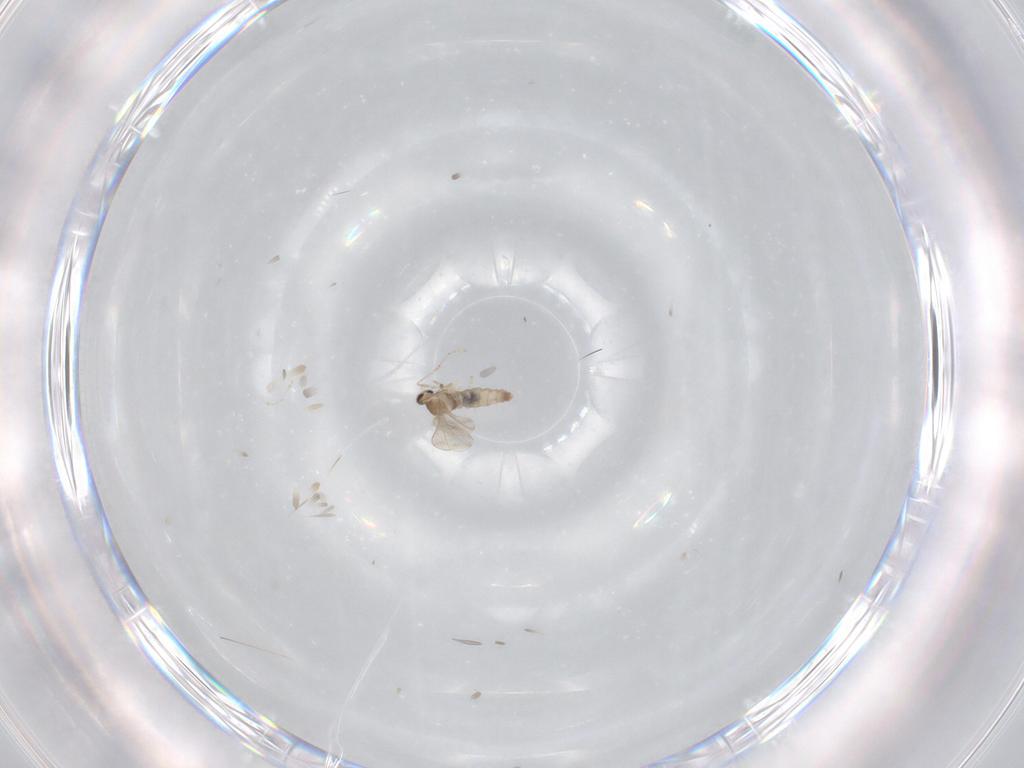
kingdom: Animalia
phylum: Arthropoda
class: Insecta
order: Diptera
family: Cecidomyiidae
